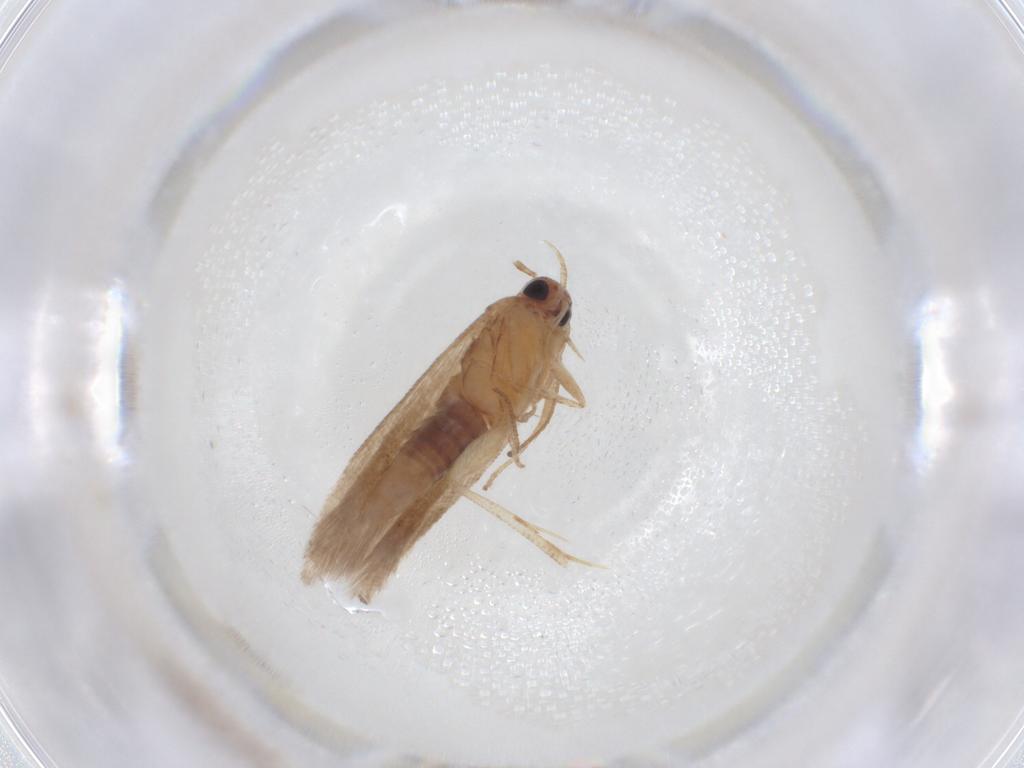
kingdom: Animalia
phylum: Arthropoda
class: Insecta
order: Lepidoptera
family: Gelechiidae
